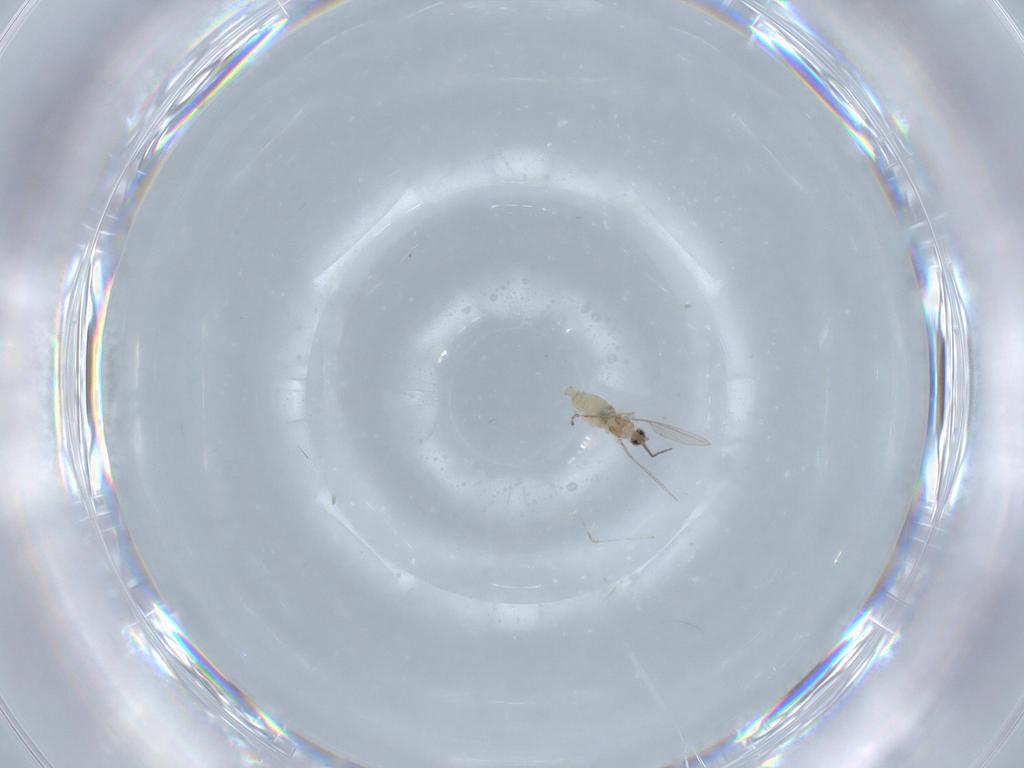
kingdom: Animalia
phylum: Arthropoda
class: Insecta
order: Diptera
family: Cecidomyiidae
